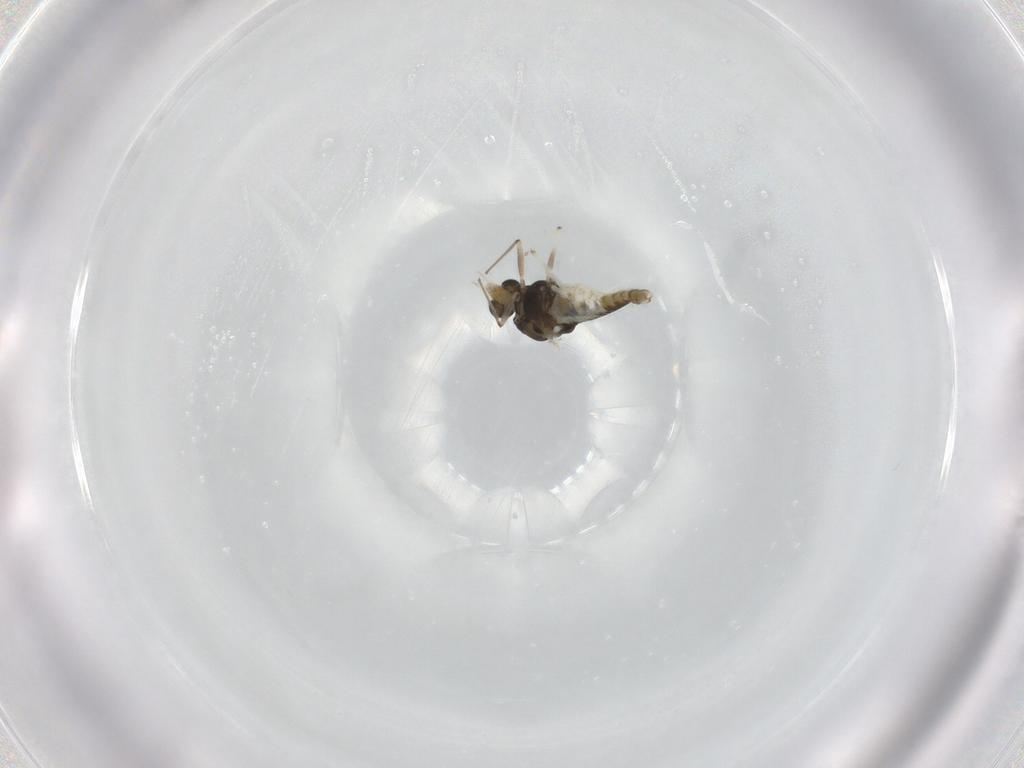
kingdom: Animalia
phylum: Arthropoda
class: Insecta
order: Diptera
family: Chironomidae
